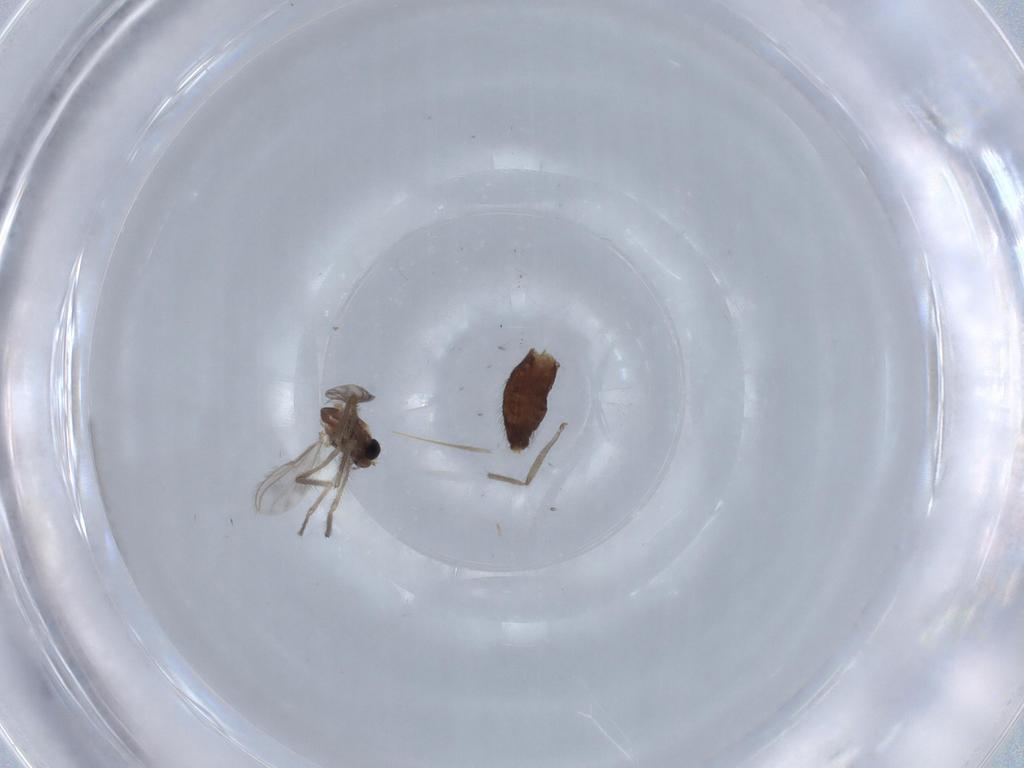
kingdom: Animalia
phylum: Arthropoda
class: Insecta
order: Diptera
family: Chironomidae
